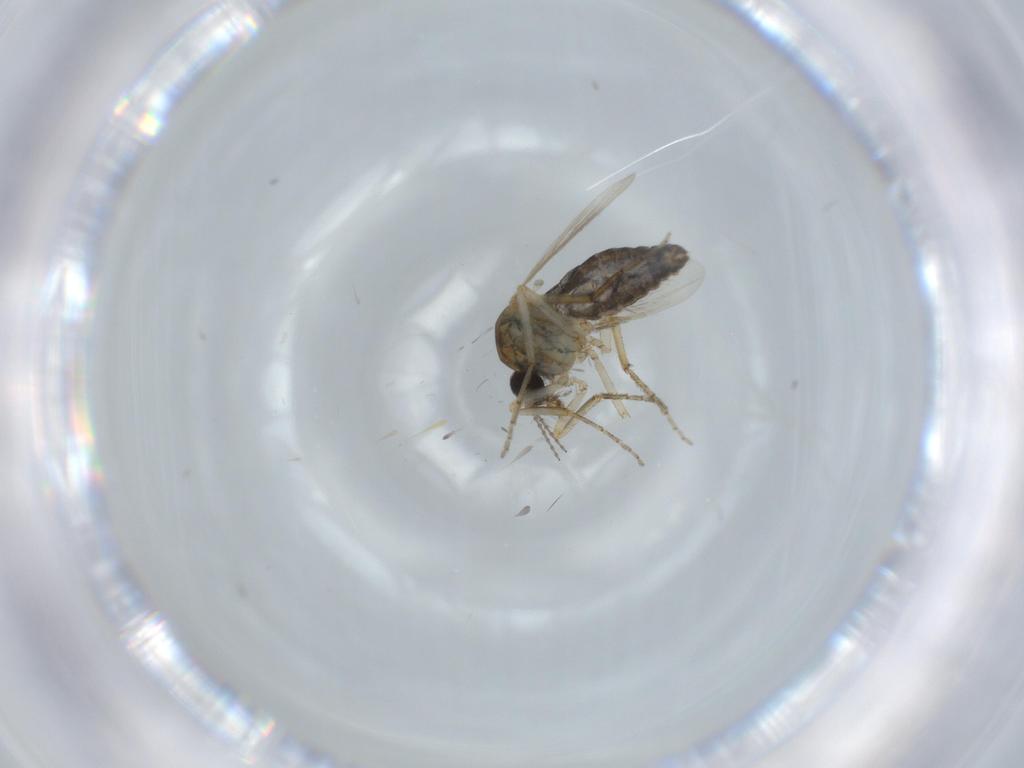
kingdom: Animalia
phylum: Arthropoda
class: Insecta
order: Diptera
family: Ceratopogonidae
